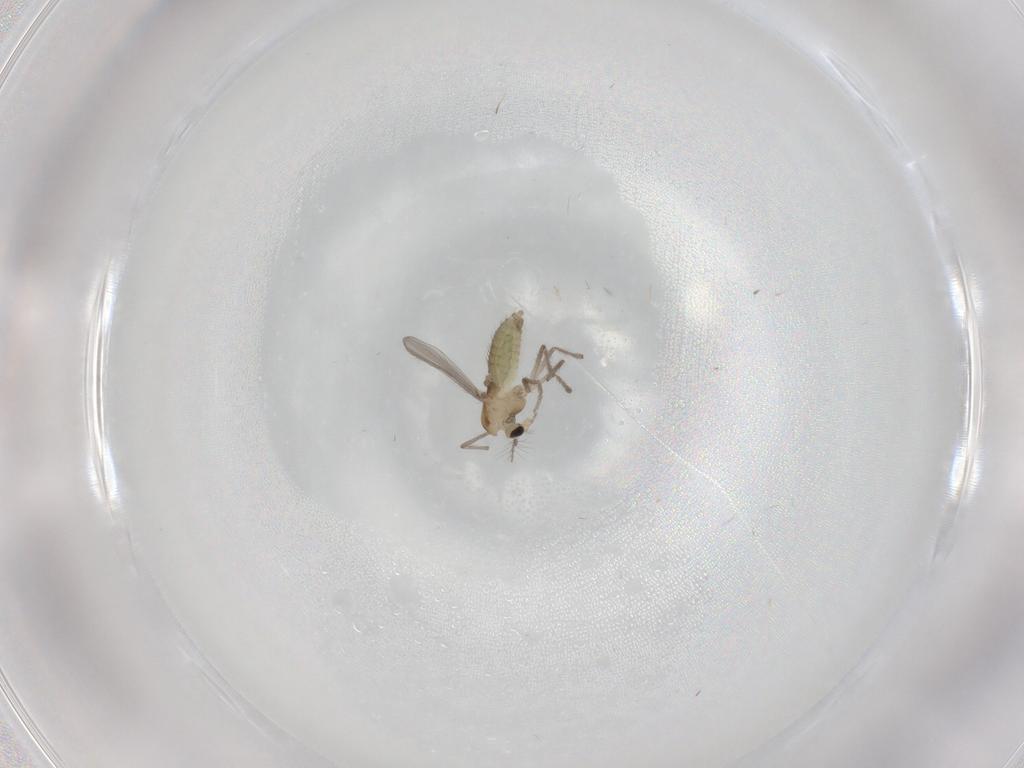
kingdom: Animalia
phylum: Arthropoda
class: Insecta
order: Diptera
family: Chironomidae
